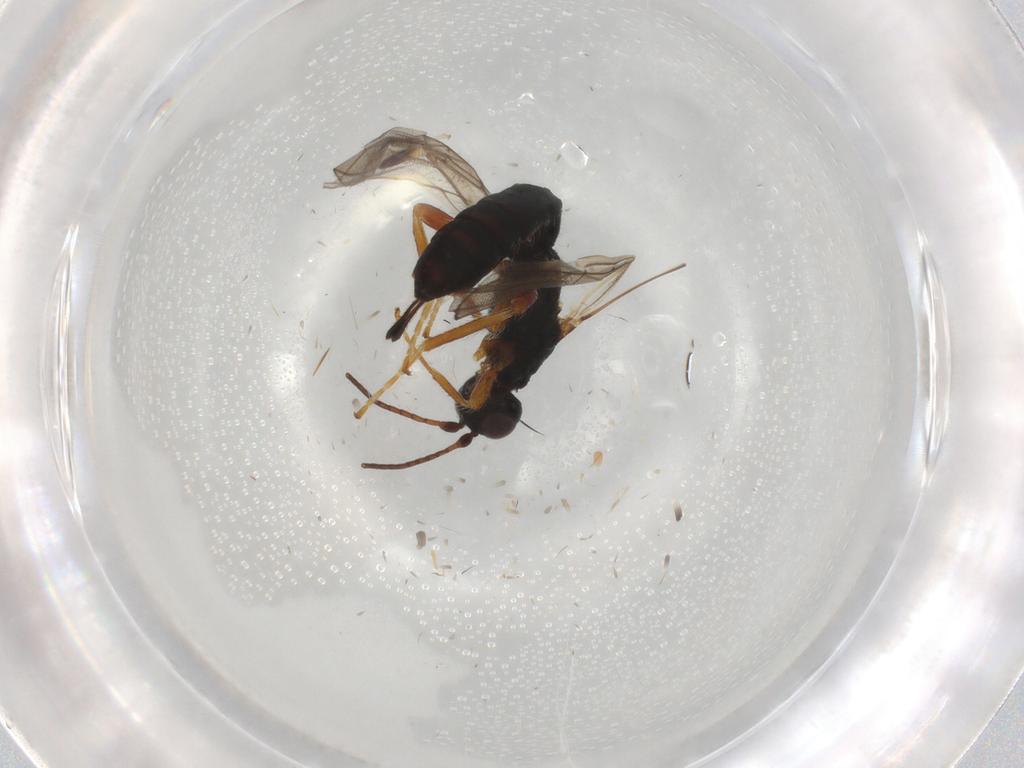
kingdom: Animalia
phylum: Arthropoda
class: Insecta
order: Hymenoptera
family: Braconidae
